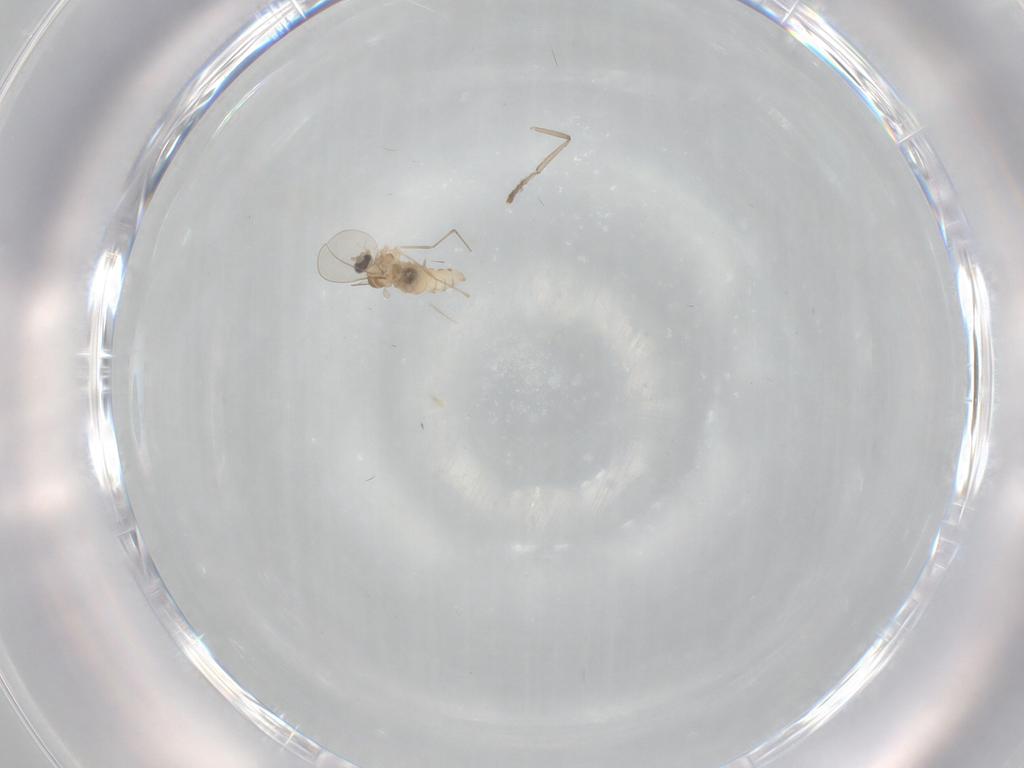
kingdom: Animalia
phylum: Arthropoda
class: Insecta
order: Diptera
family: Cecidomyiidae
